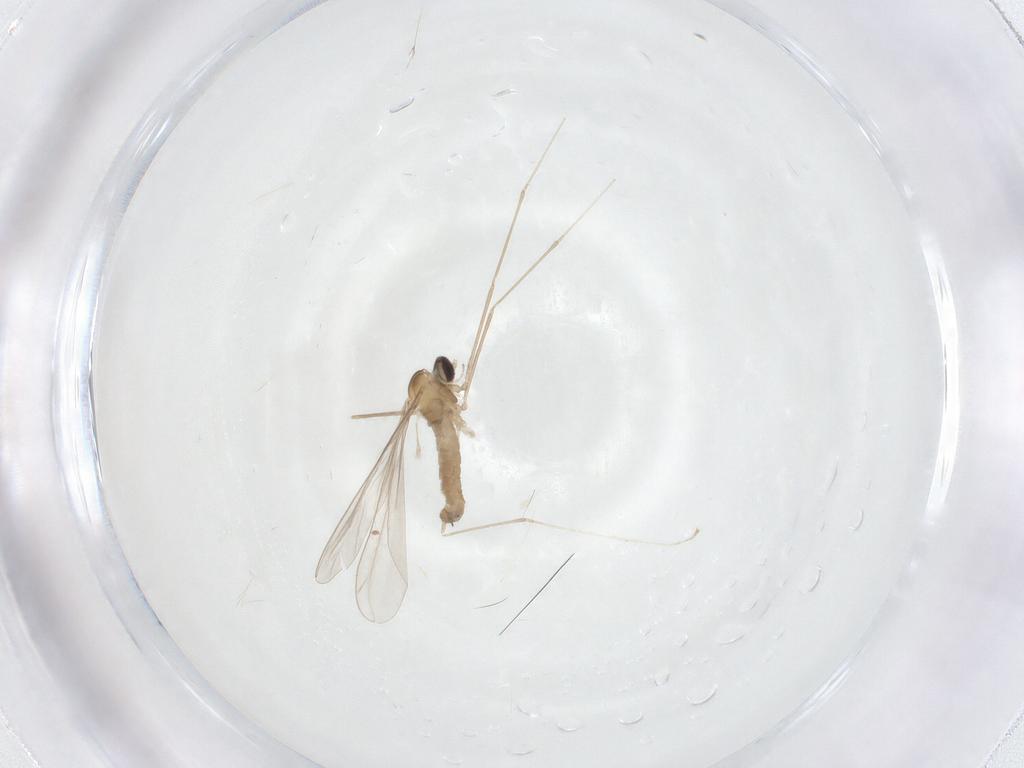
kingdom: Animalia
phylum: Arthropoda
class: Insecta
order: Diptera
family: Cecidomyiidae
